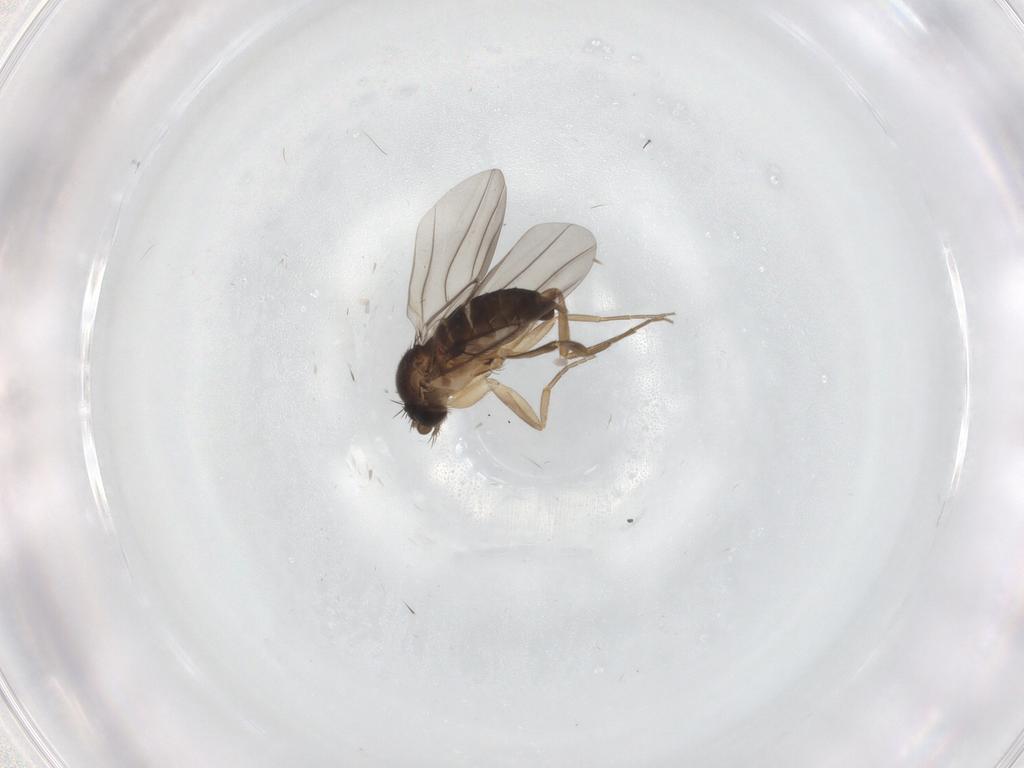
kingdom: Animalia
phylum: Arthropoda
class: Insecta
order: Diptera
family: Phoridae
